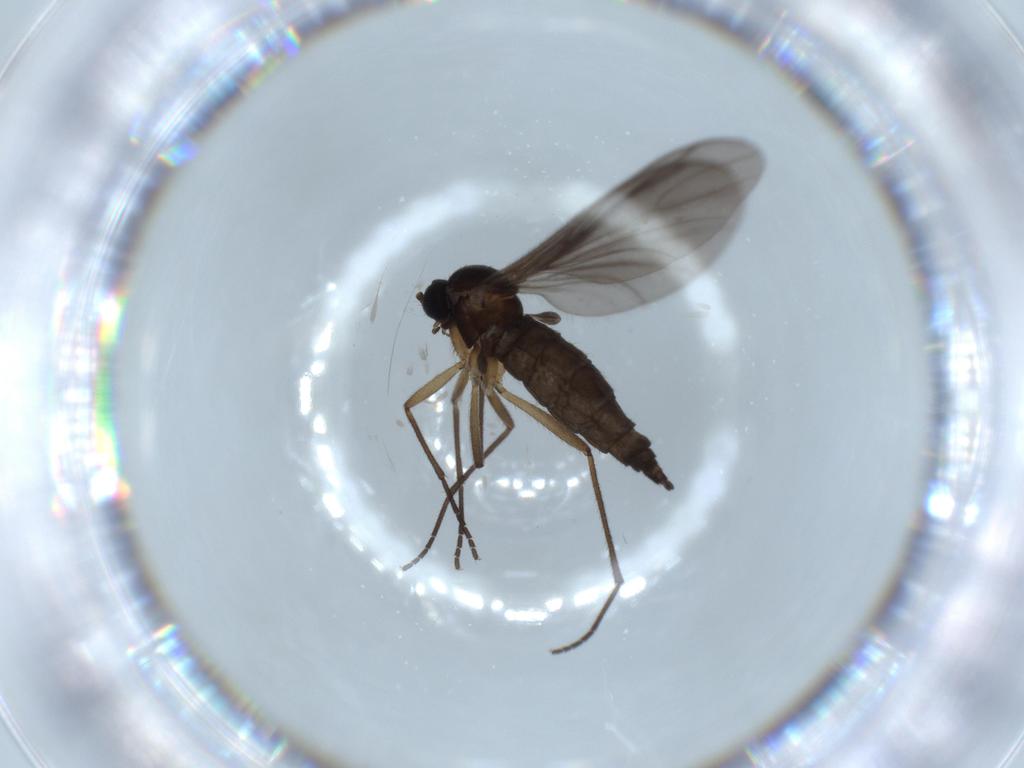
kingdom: Animalia
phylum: Arthropoda
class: Insecta
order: Diptera
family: Sciaridae
